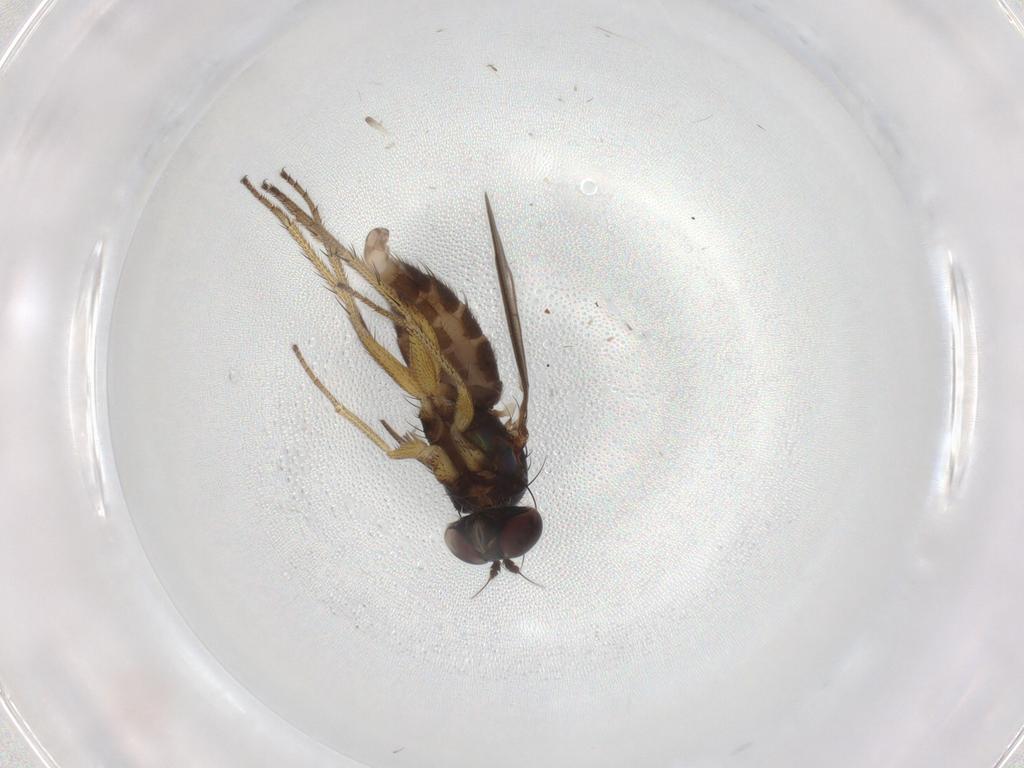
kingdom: Animalia
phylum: Arthropoda
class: Insecta
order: Diptera
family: Dolichopodidae
